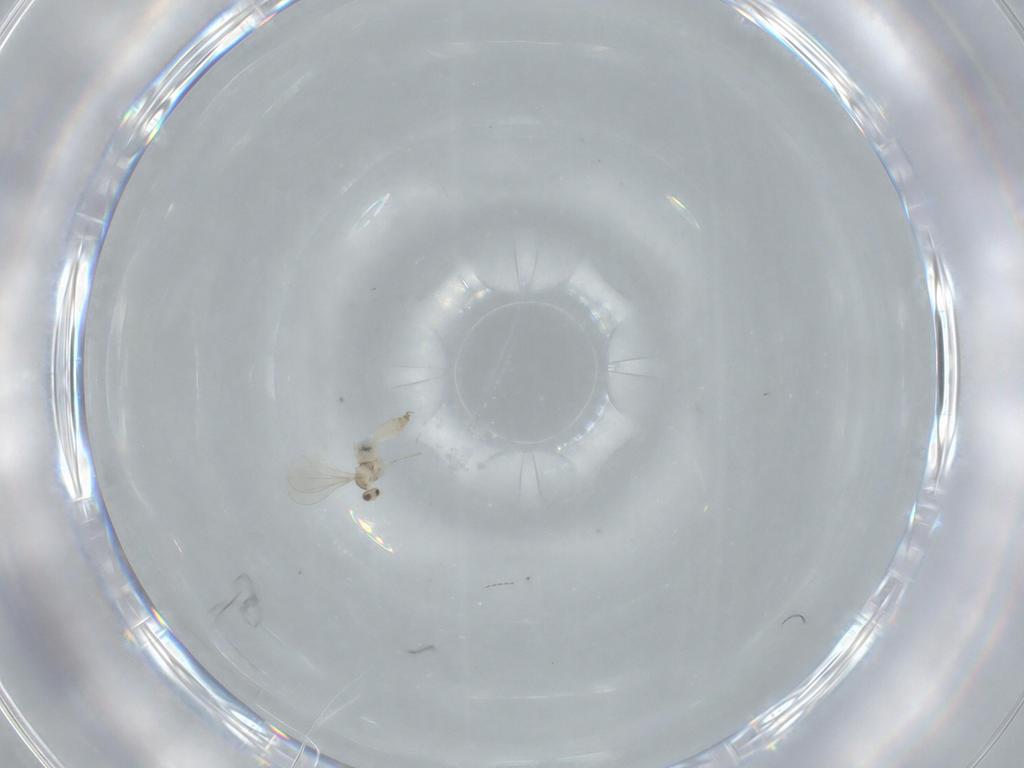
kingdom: Animalia
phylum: Arthropoda
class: Insecta
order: Diptera
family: Cecidomyiidae
